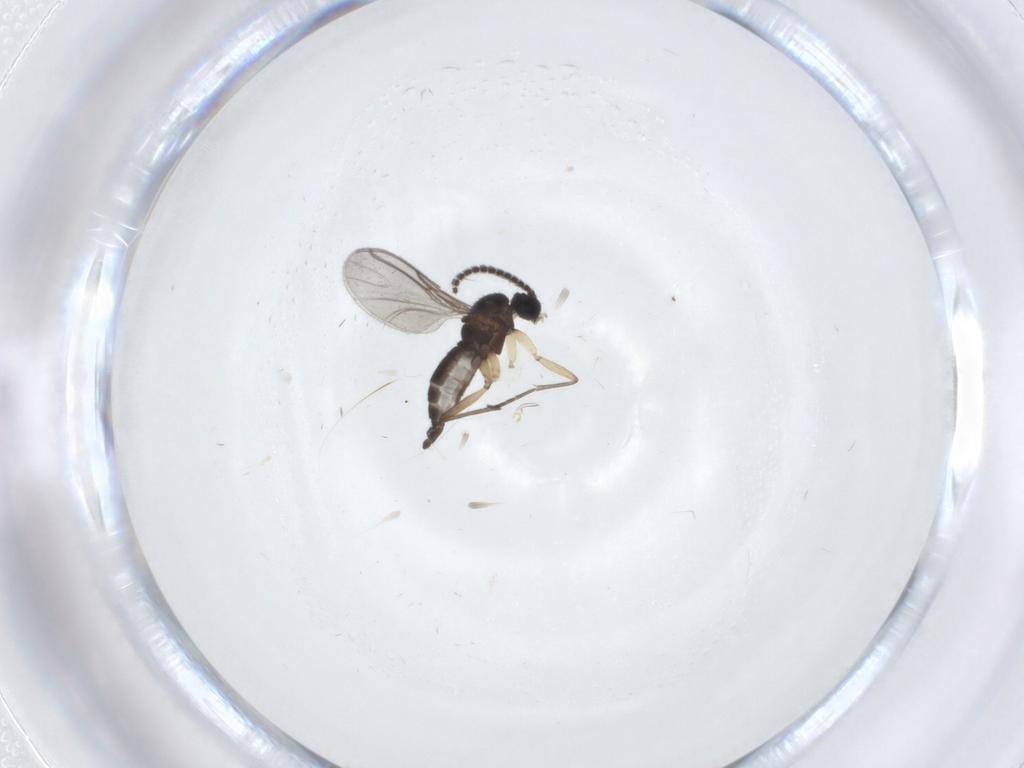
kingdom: Animalia
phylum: Arthropoda
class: Insecta
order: Diptera
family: Sciaridae
